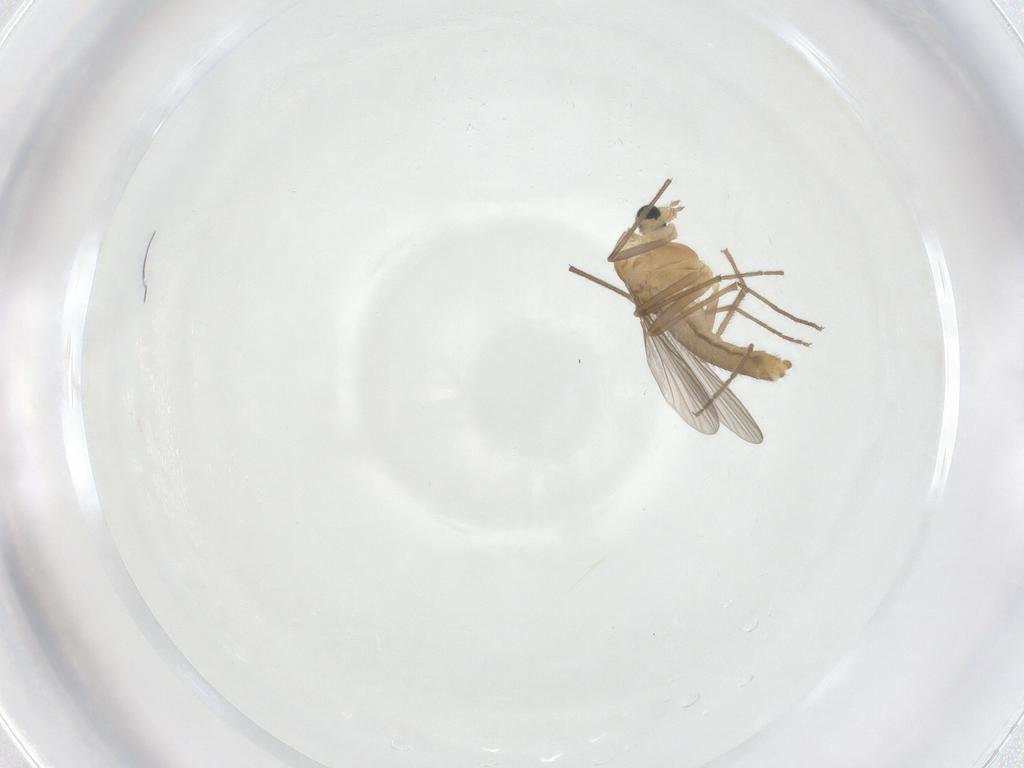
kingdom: Animalia
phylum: Arthropoda
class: Insecta
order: Diptera
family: Chironomidae
